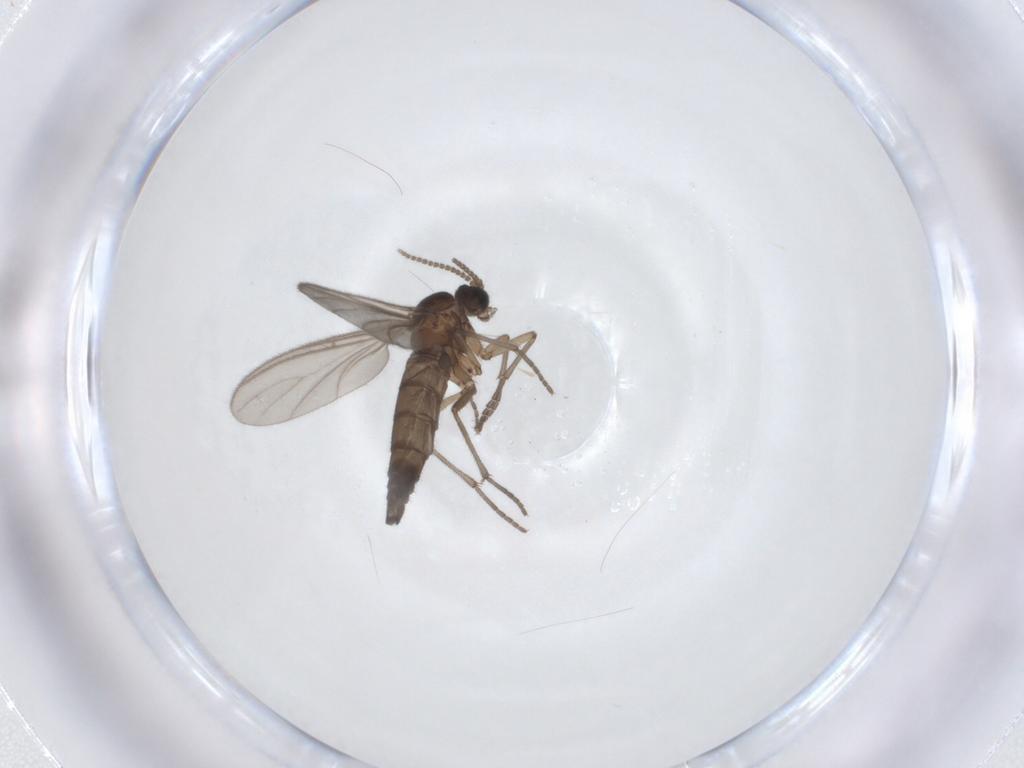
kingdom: Animalia
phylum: Arthropoda
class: Insecta
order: Diptera
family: Sciaridae
